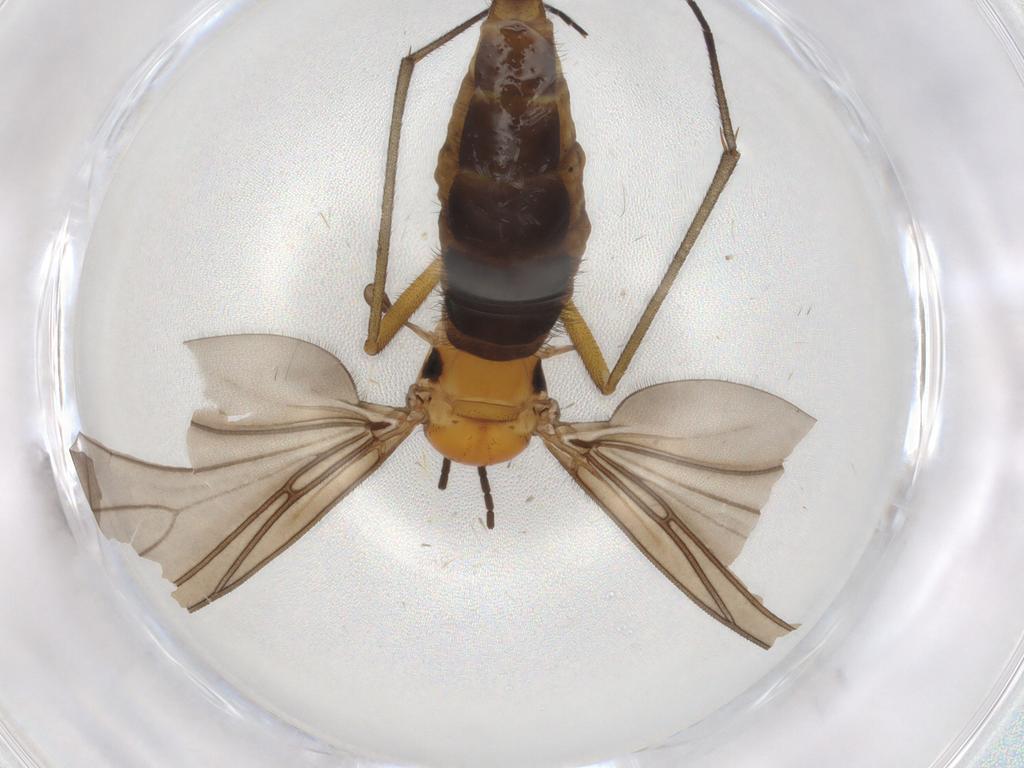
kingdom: Animalia
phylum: Arthropoda
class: Insecta
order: Diptera
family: Sciaridae
